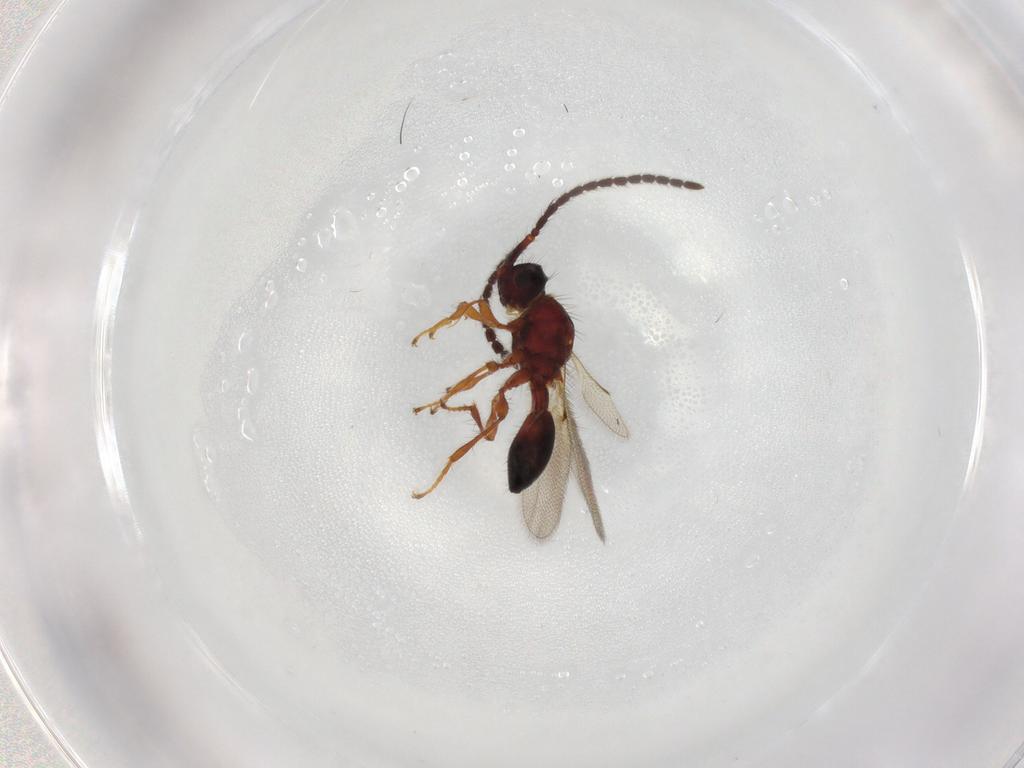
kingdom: Animalia
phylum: Arthropoda
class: Insecta
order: Hymenoptera
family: Diapriidae
